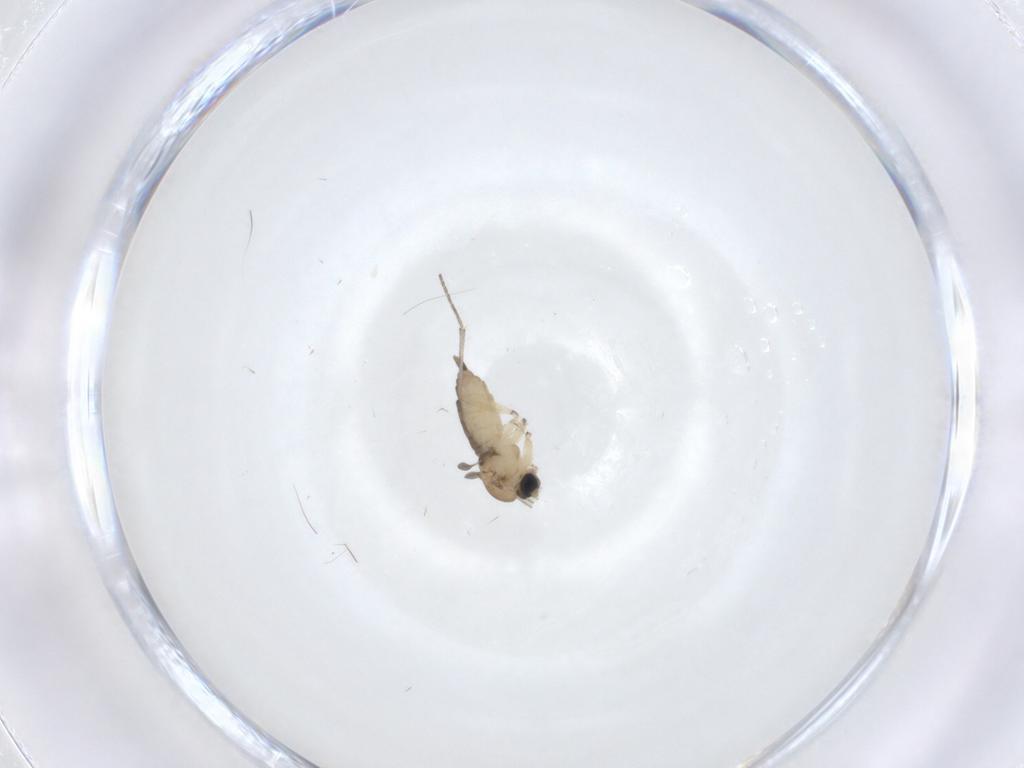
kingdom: Animalia
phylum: Arthropoda
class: Insecta
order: Diptera
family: Sciaridae
